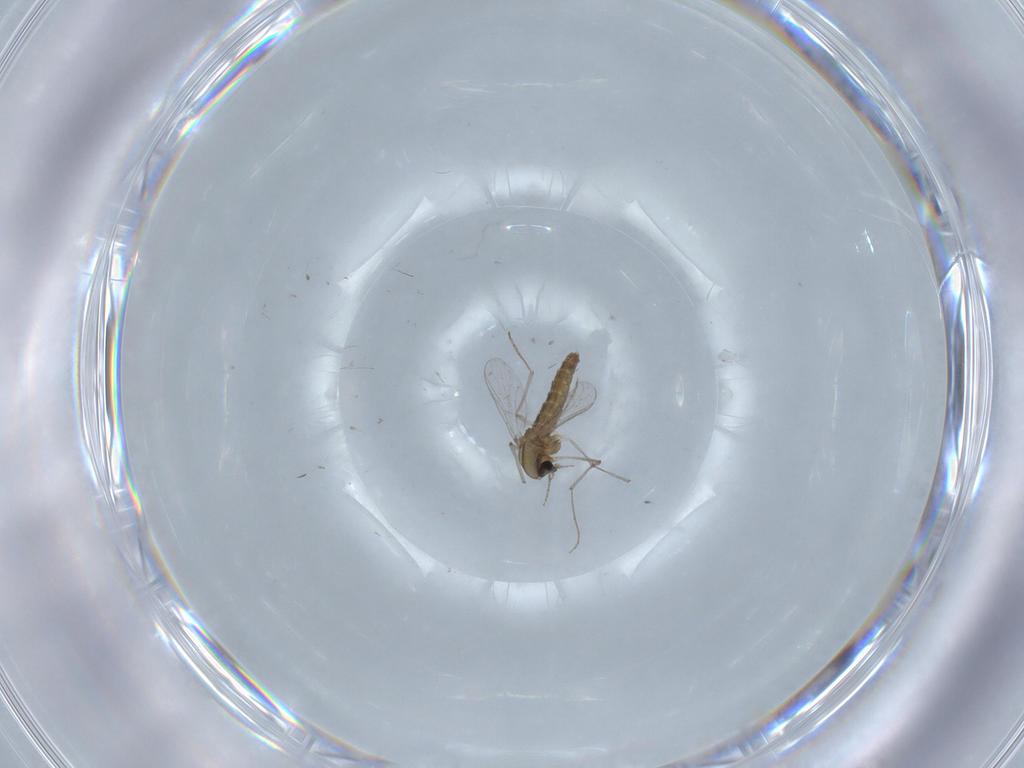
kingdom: Animalia
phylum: Arthropoda
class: Insecta
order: Diptera
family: Chironomidae
